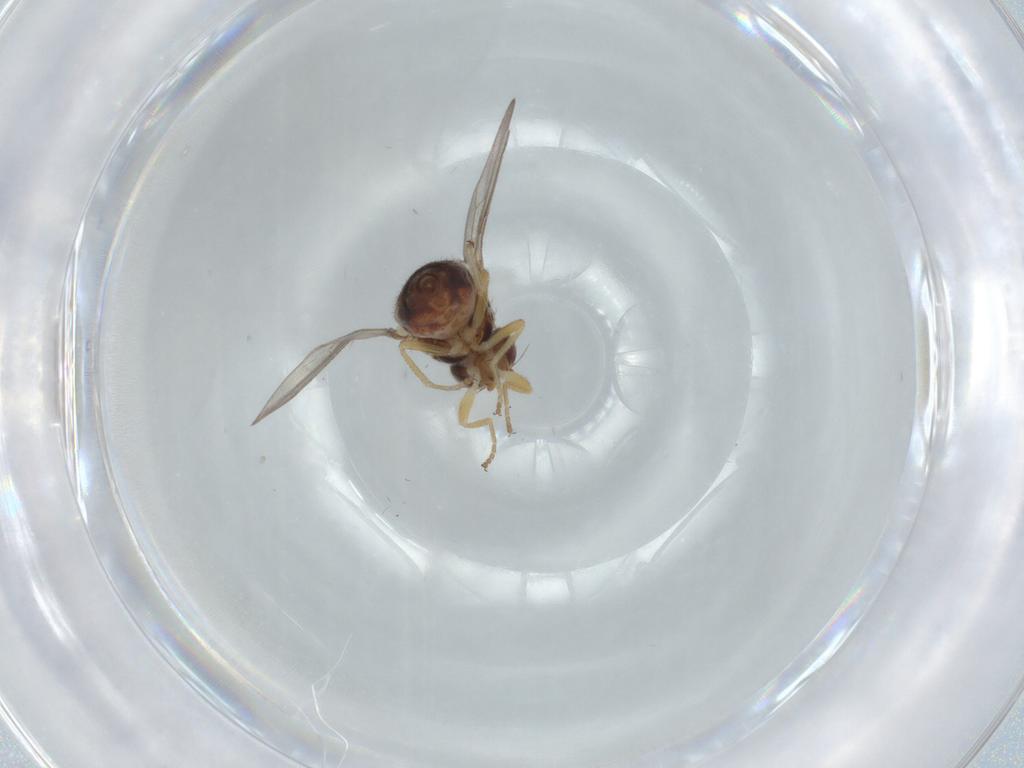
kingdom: Animalia
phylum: Arthropoda
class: Insecta
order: Diptera
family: Chloropidae
